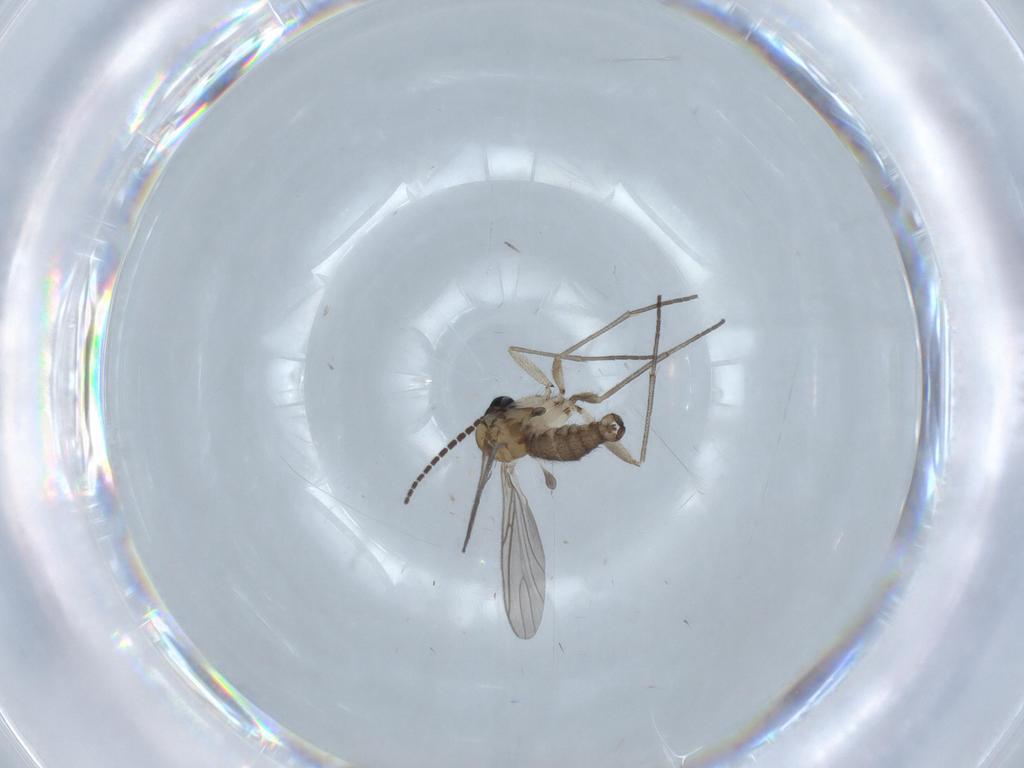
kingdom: Animalia
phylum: Arthropoda
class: Insecta
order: Diptera
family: Sciaridae
